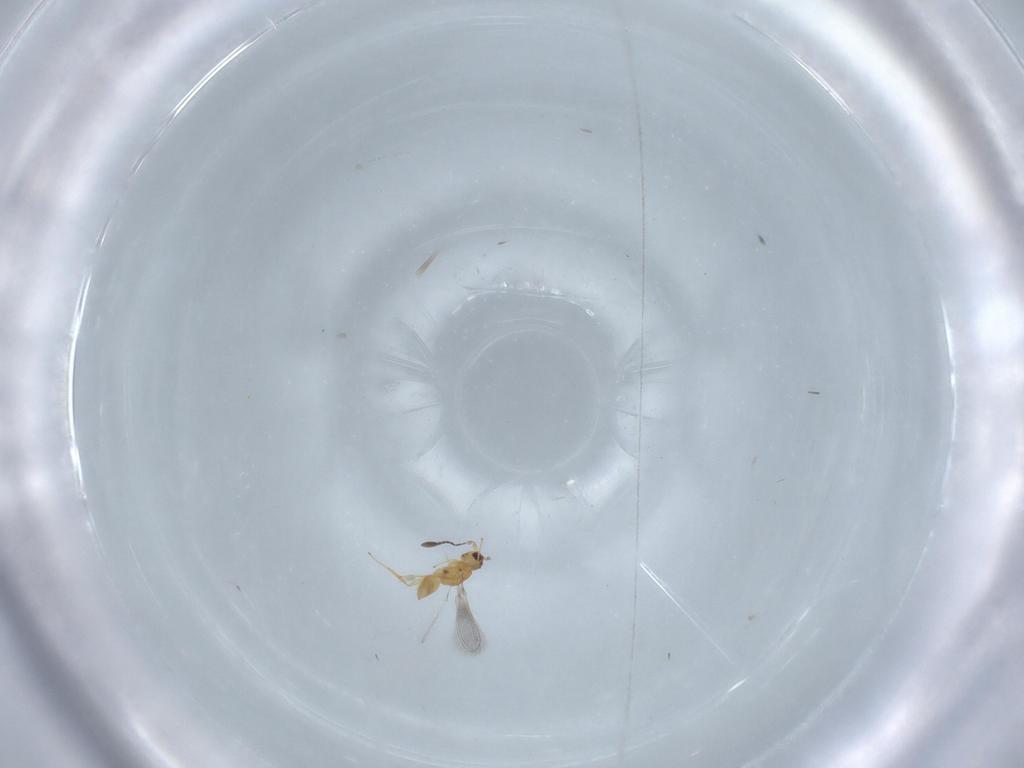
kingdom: Animalia
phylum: Arthropoda
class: Insecta
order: Hymenoptera
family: Mymaridae
